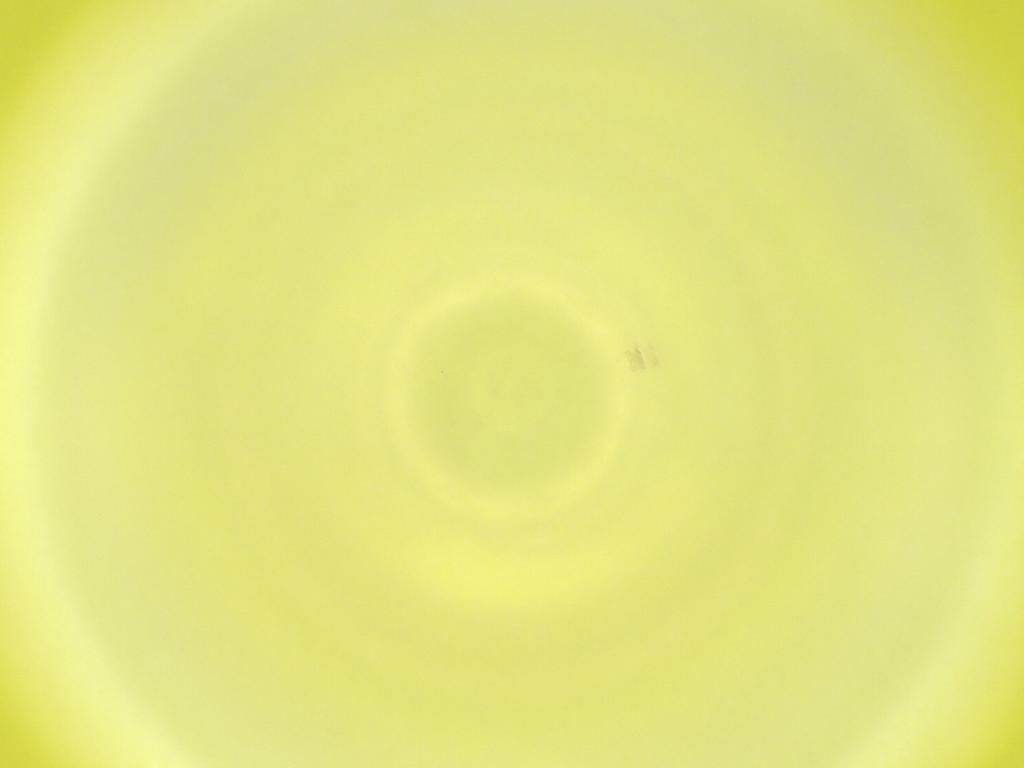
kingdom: Animalia
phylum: Arthropoda
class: Insecta
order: Diptera
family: Cecidomyiidae
